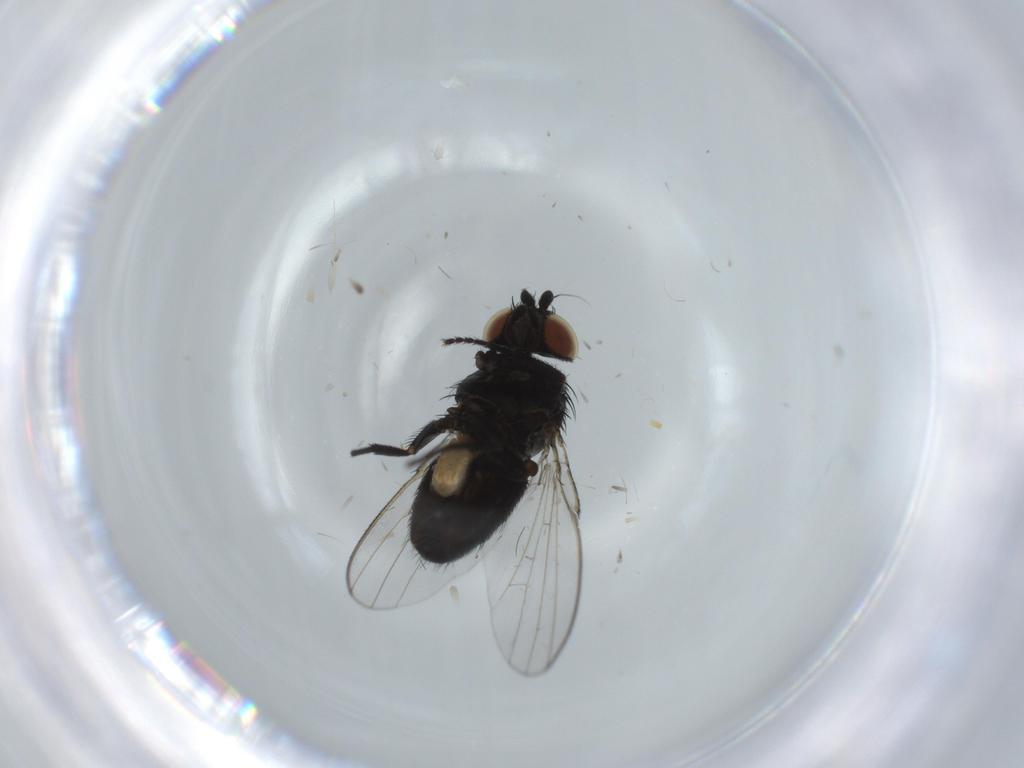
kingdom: Animalia
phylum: Arthropoda
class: Insecta
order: Diptera
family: Milichiidae
